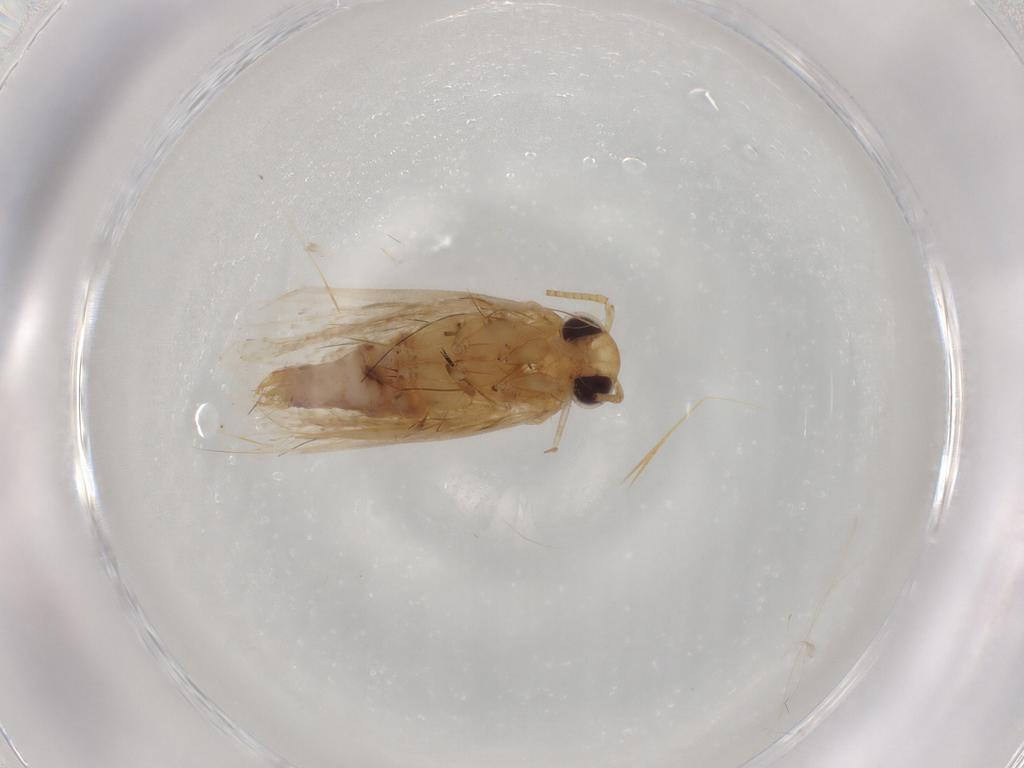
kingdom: Animalia
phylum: Arthropoda
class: Insecta
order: Lepidoptera
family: Depressariidae
